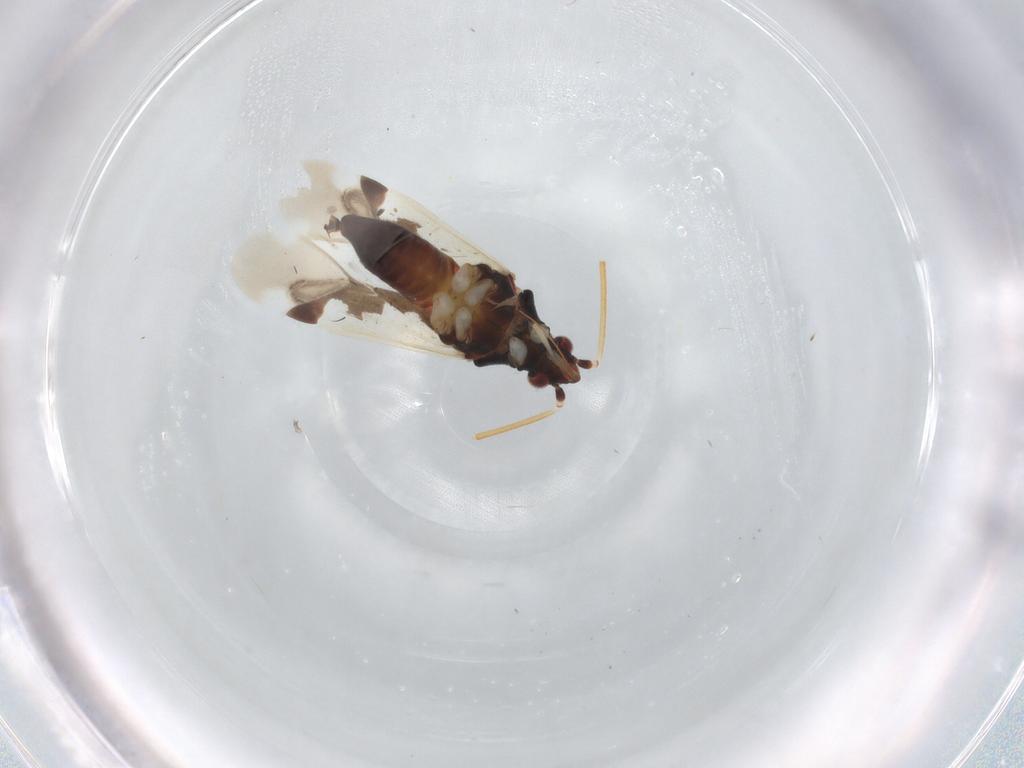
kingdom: Animalia
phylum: Arthropoda
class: Insecta
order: Hemiptera
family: Miridae
